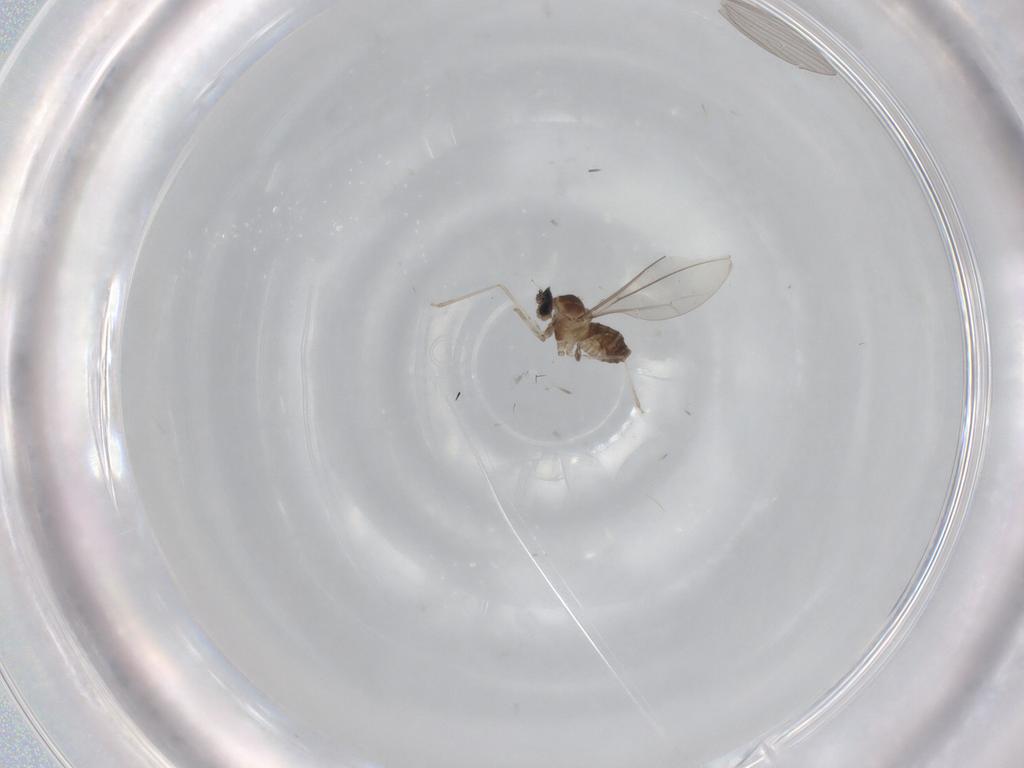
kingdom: Animalia
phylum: Arthropoda
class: Insecta
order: Diptera
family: Cecidomyiidae
